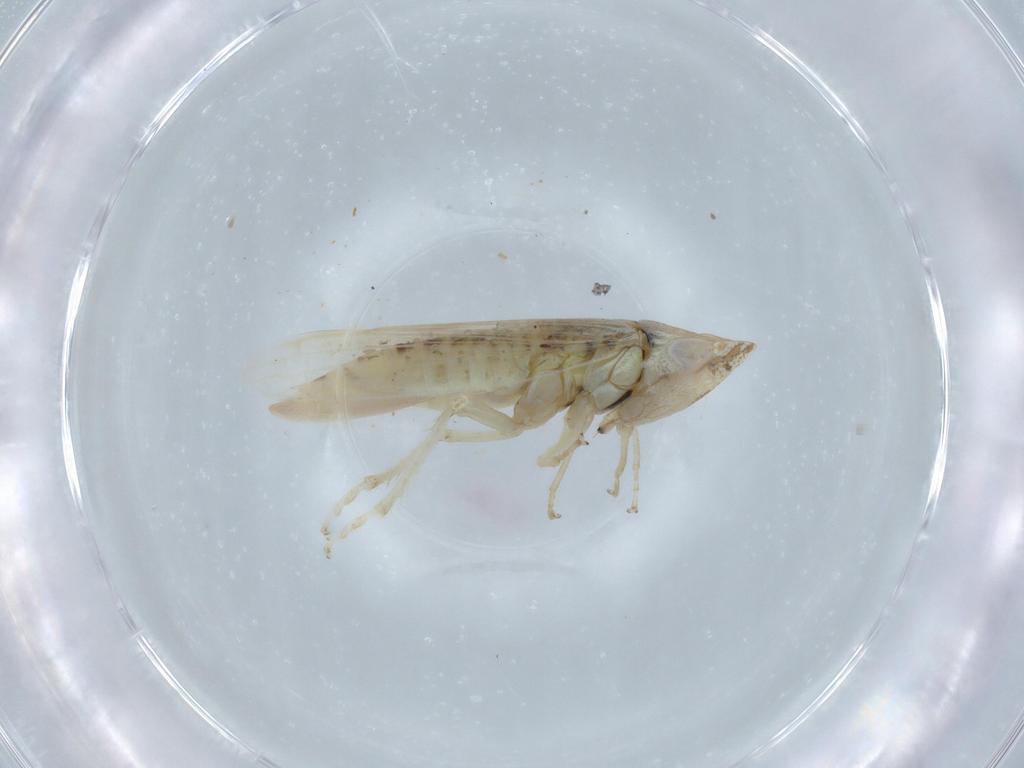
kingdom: Animalia
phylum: Arthropoda
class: Insecta
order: Hemiptera
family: Cicadellidae
